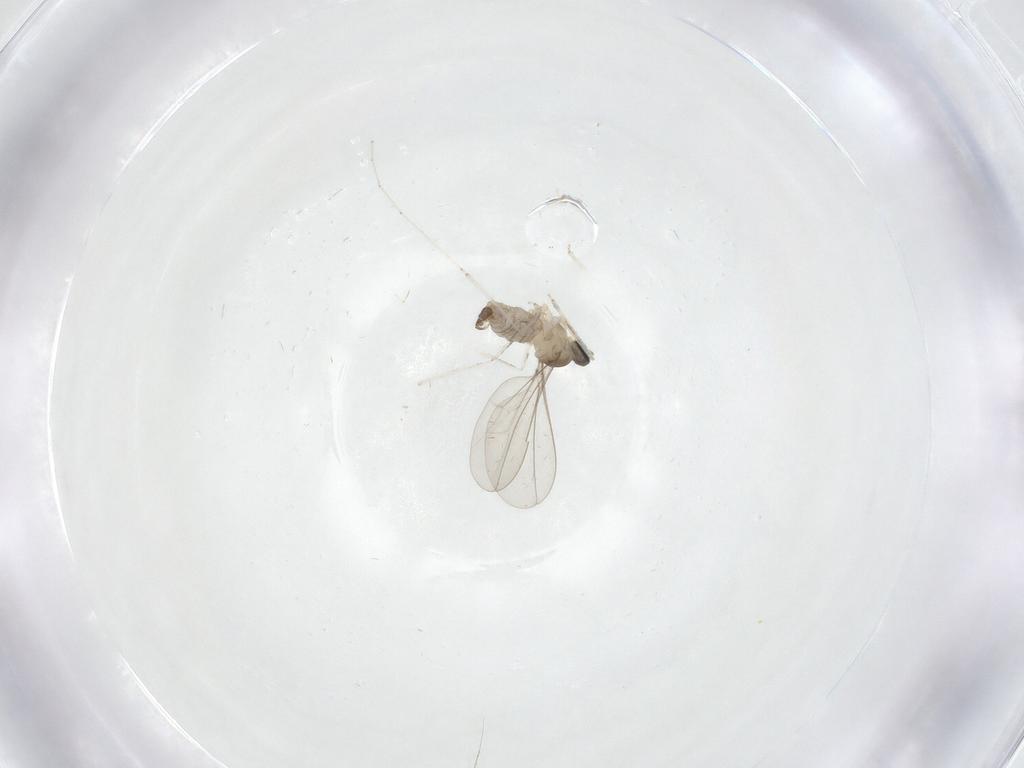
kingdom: Animalia
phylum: Arthropoda
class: Insecta
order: Diptera
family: Cecidomyiidae
